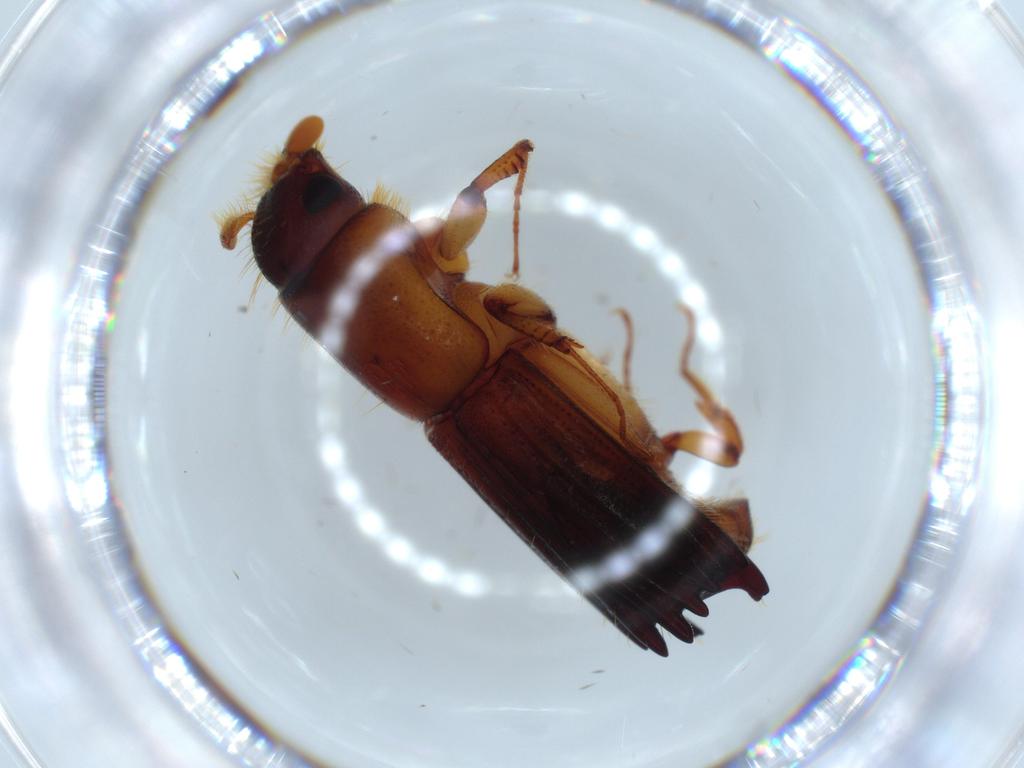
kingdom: Animalia
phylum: Arthropoda
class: Insecta
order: Coleoptera
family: Curculionidae
